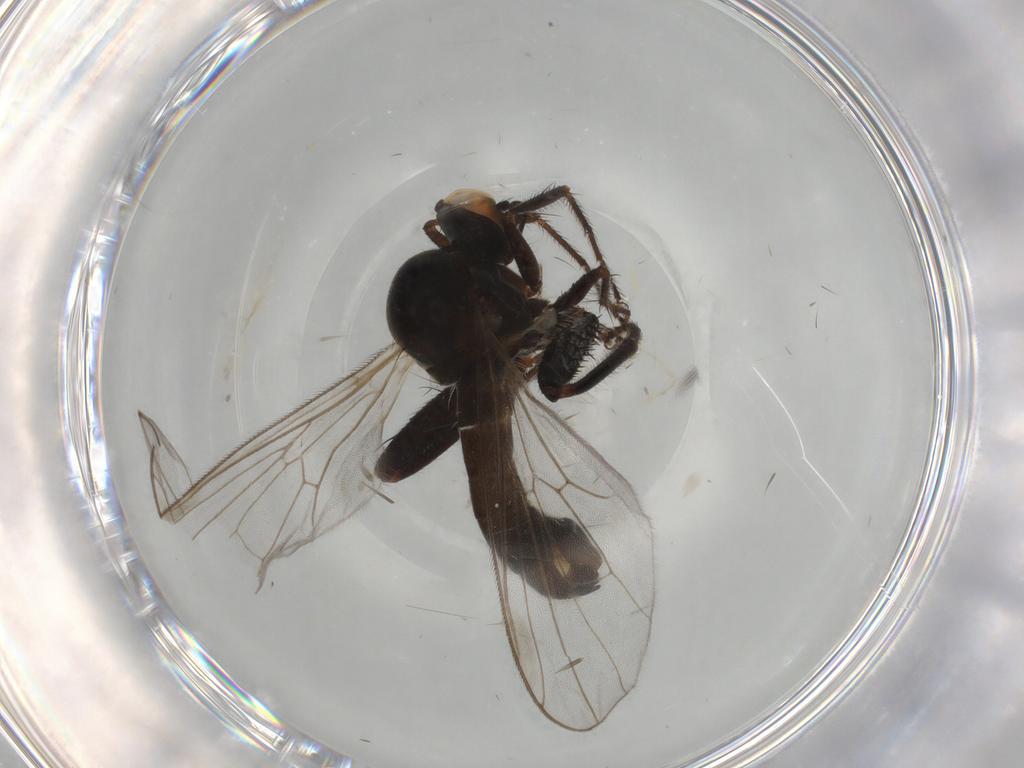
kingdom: Animalia
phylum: Arthropoda
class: Insecta
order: Diptera
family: Hybotidae
